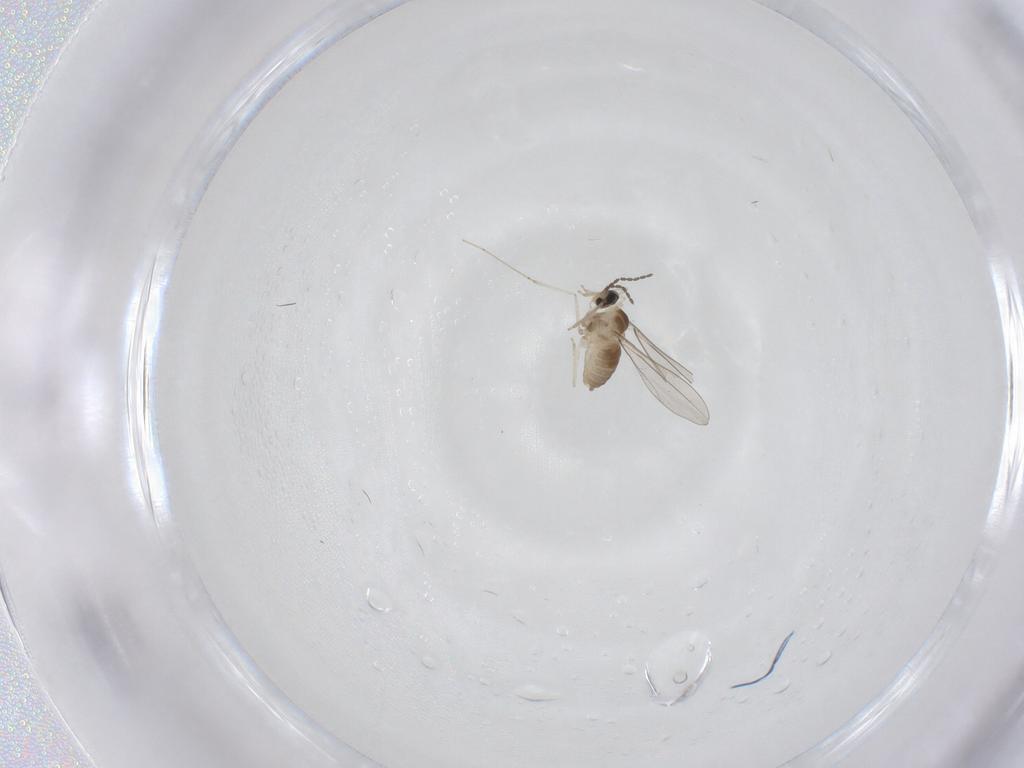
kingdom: Animalia
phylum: Arthropoda
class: Insecta
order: Diptera
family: Cecidomyiidae
